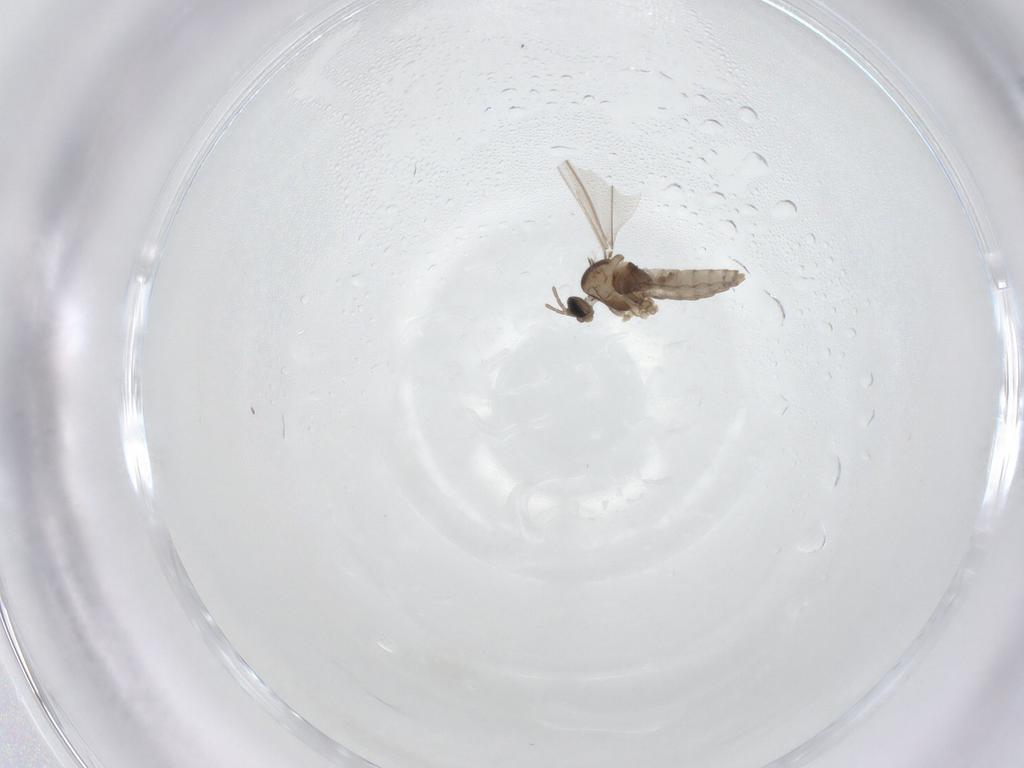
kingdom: Animalia
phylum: Arthropoda
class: Insecta
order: Diptera
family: Cecidomyiidae
